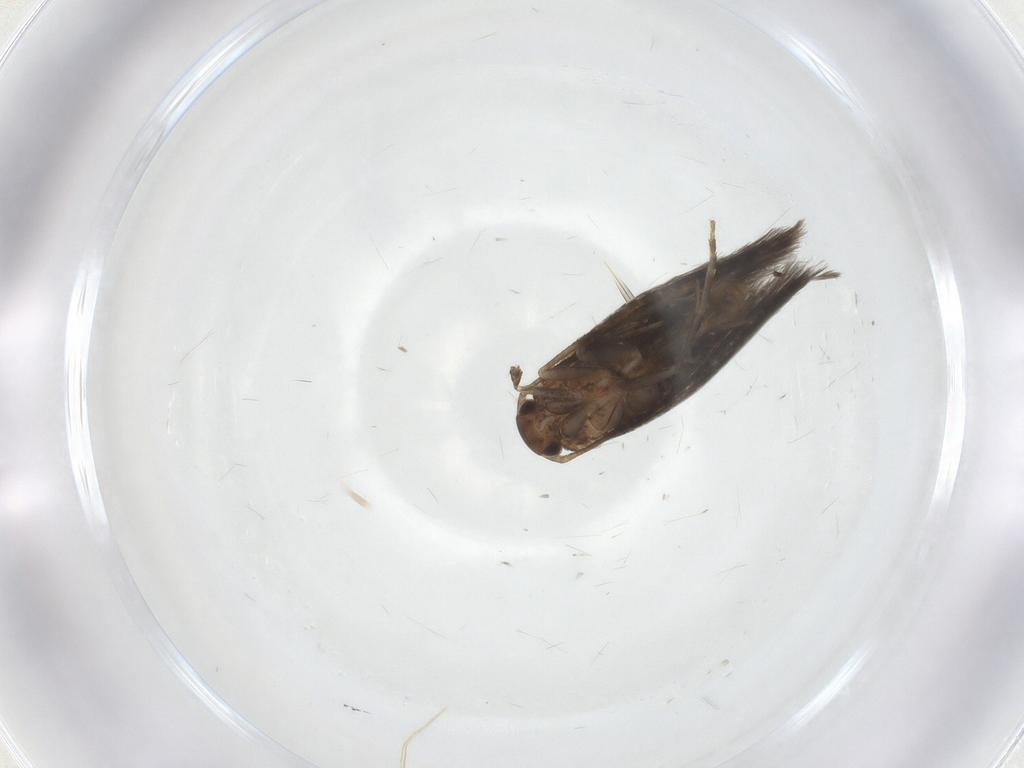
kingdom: Animalia
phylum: Arthropoda
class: Insecta
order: Lepidoptera
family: Elachistidae
